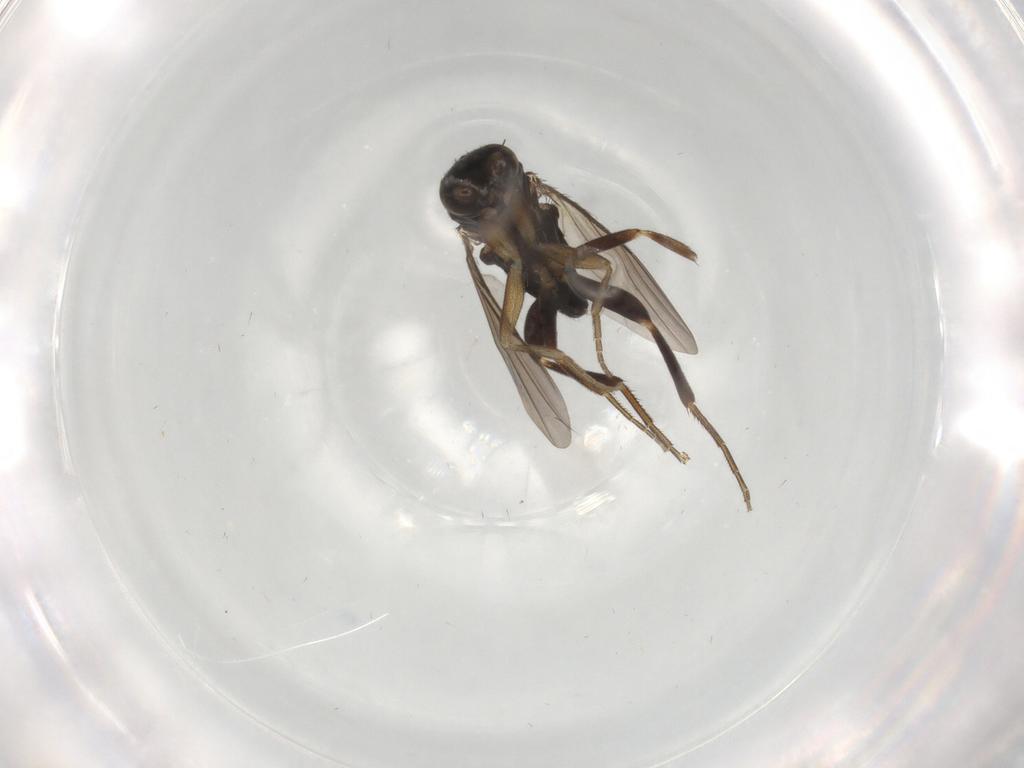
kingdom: Animalia
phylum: Arthropoda
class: Insecta
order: Diptera
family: Phoridae
